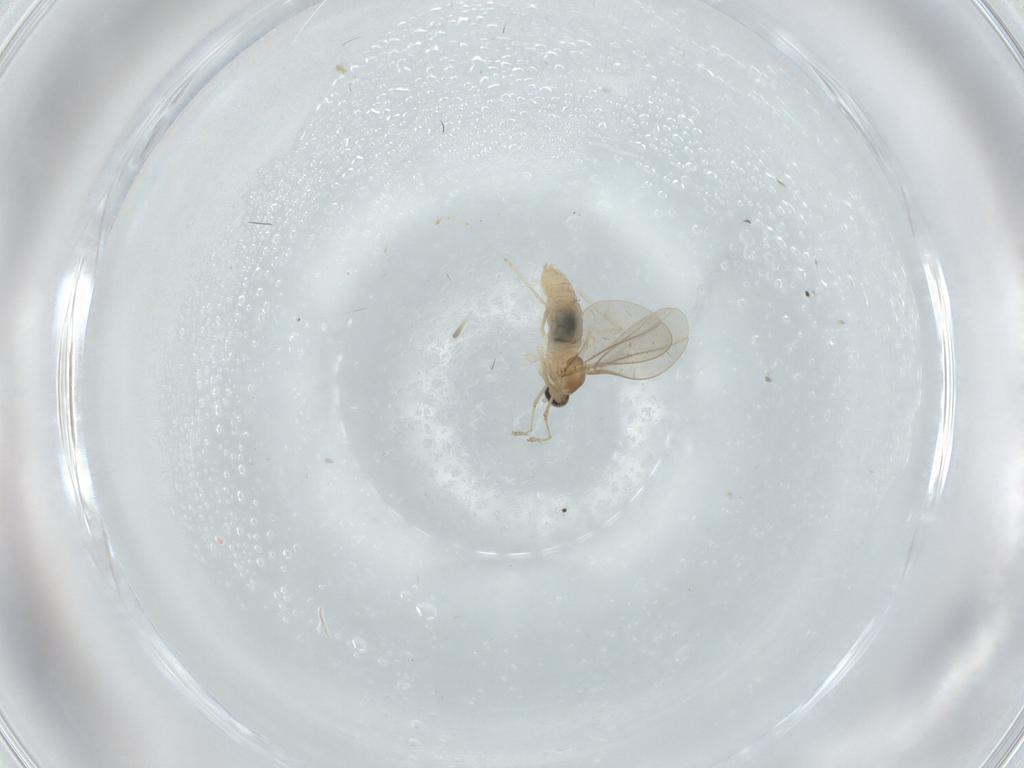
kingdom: Animalia
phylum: Arthropoda
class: Insecta
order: Diptera
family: Cecidomyiidae
